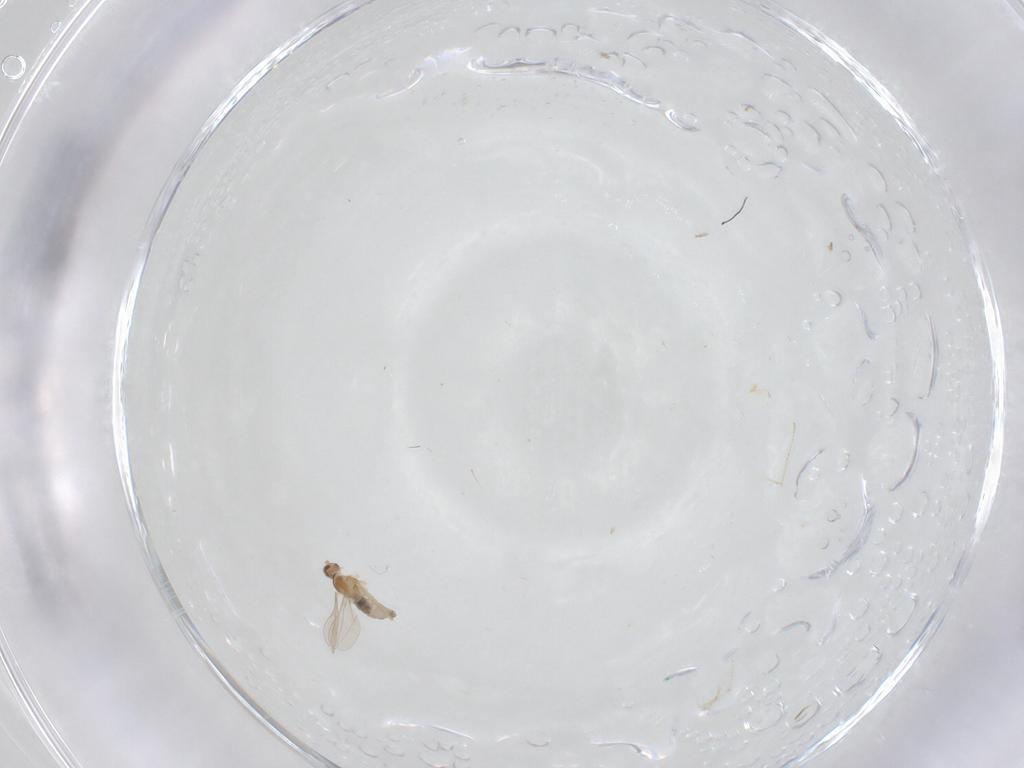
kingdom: Animalia
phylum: Arthropoda
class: Insecta
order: Diptera
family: Cecidomyiidae
